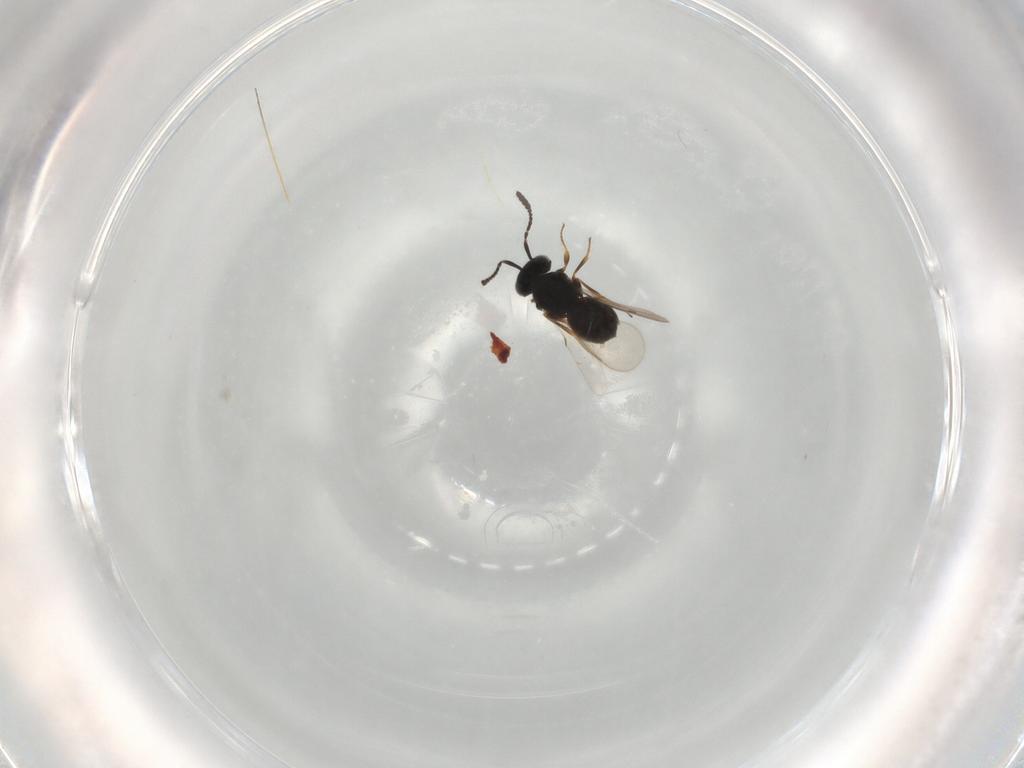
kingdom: Animalia
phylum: Arthropoda
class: Insecta
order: Hymenoptera
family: Scelionidae
